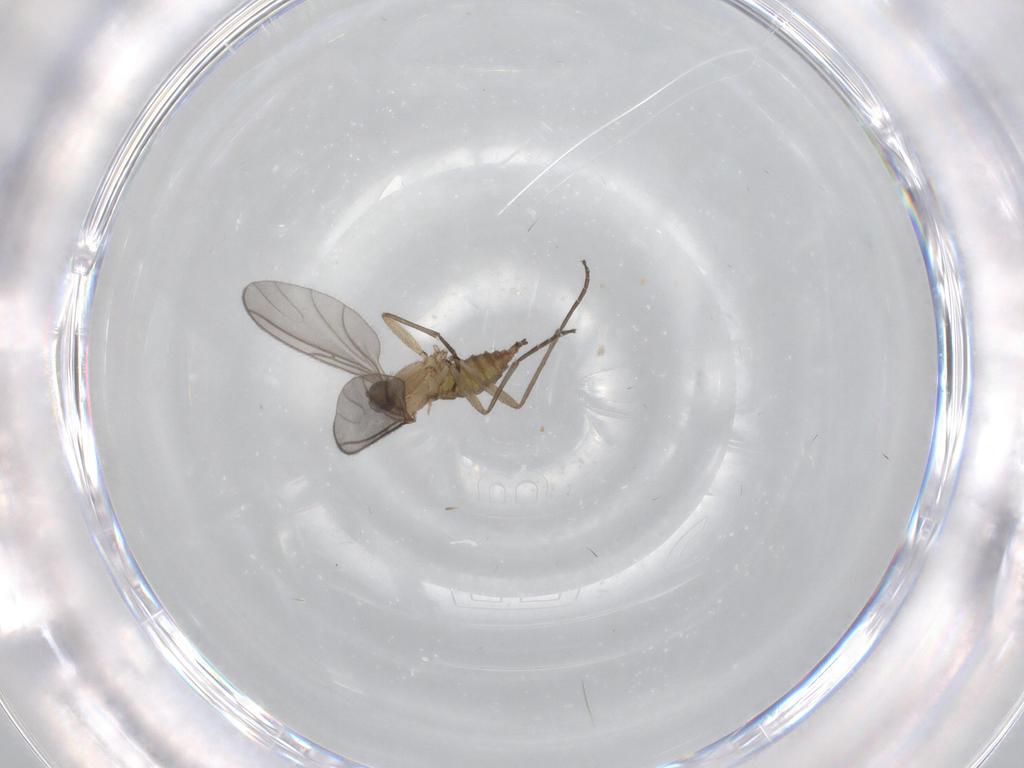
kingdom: Animalia
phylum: Arthropoda
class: Insecta
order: Diptera
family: Sciaridae
